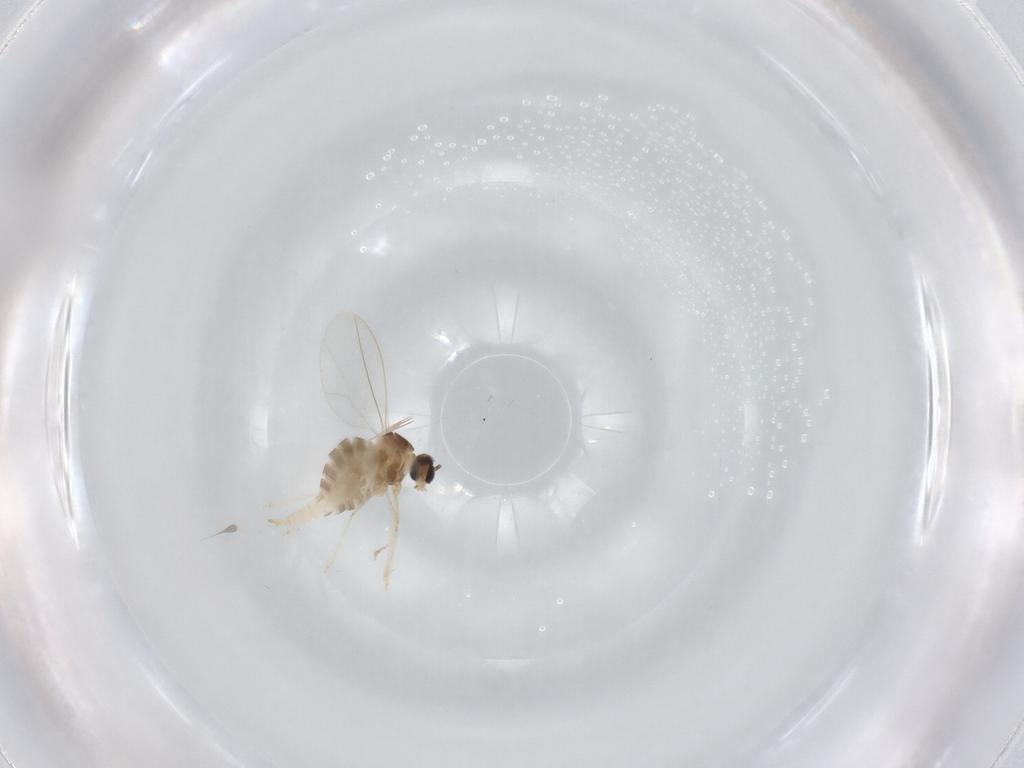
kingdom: Animalia
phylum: Arthropoda
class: Insecta
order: Diptera
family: Cecidomyiidae
